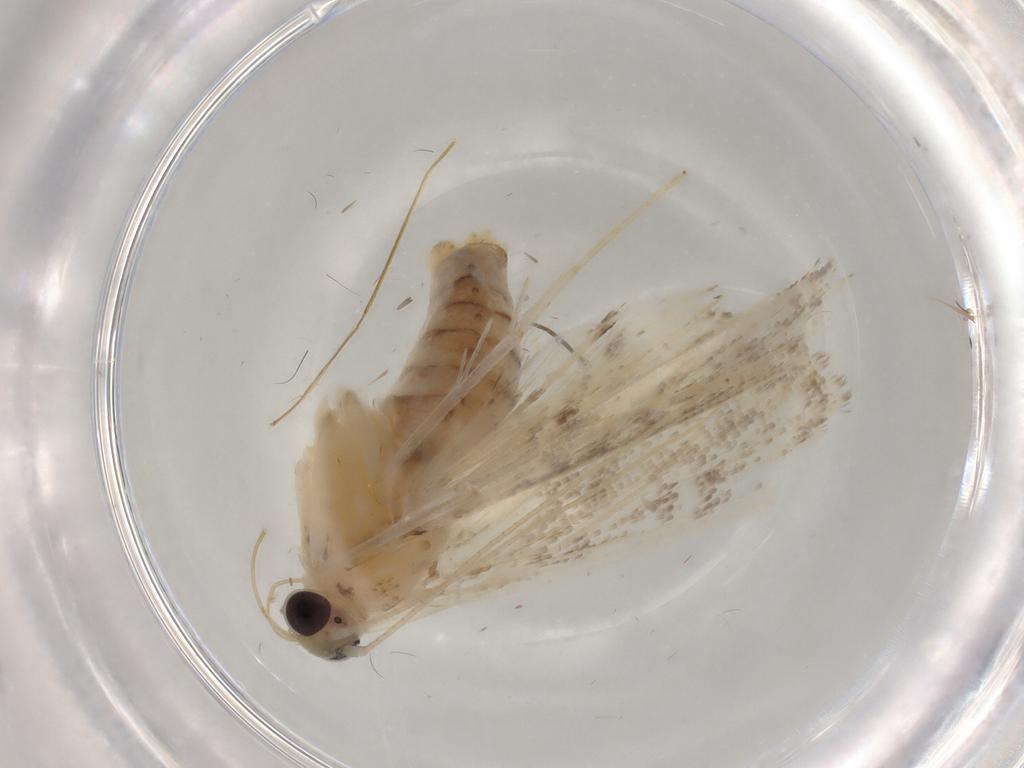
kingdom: Animalia
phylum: Arthropoda
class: Insecta
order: Lepidoptera
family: Crambidae
